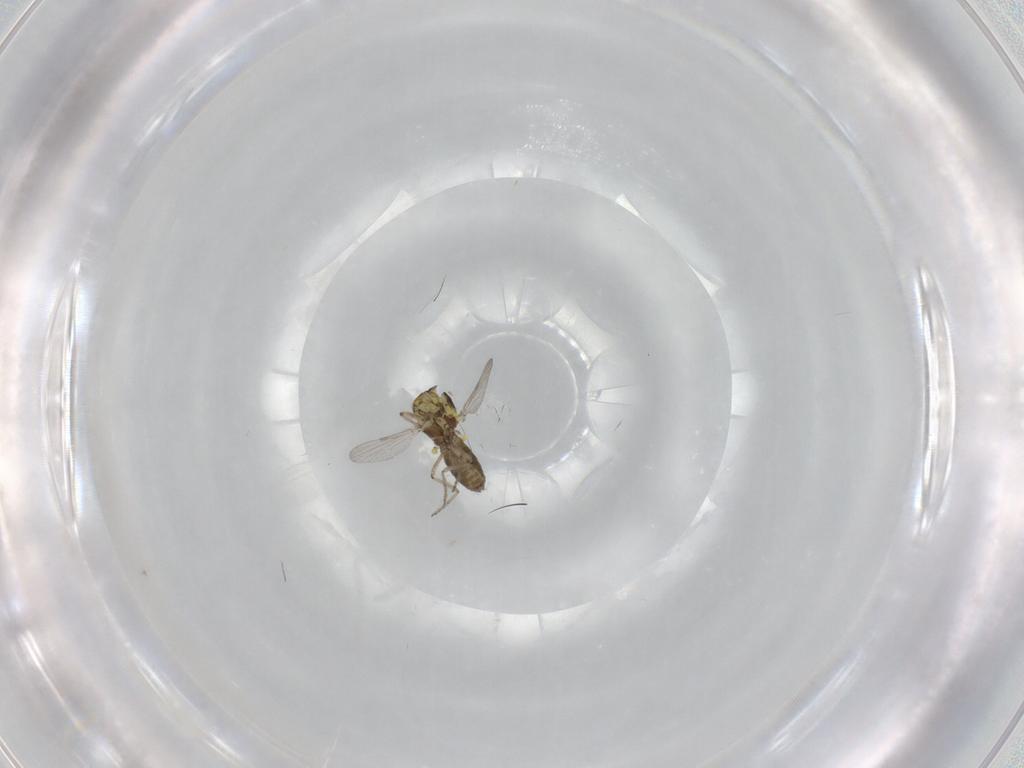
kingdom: Animalia
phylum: Arthropoda
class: Insecta
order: Diptera
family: Ceratopogonidae
